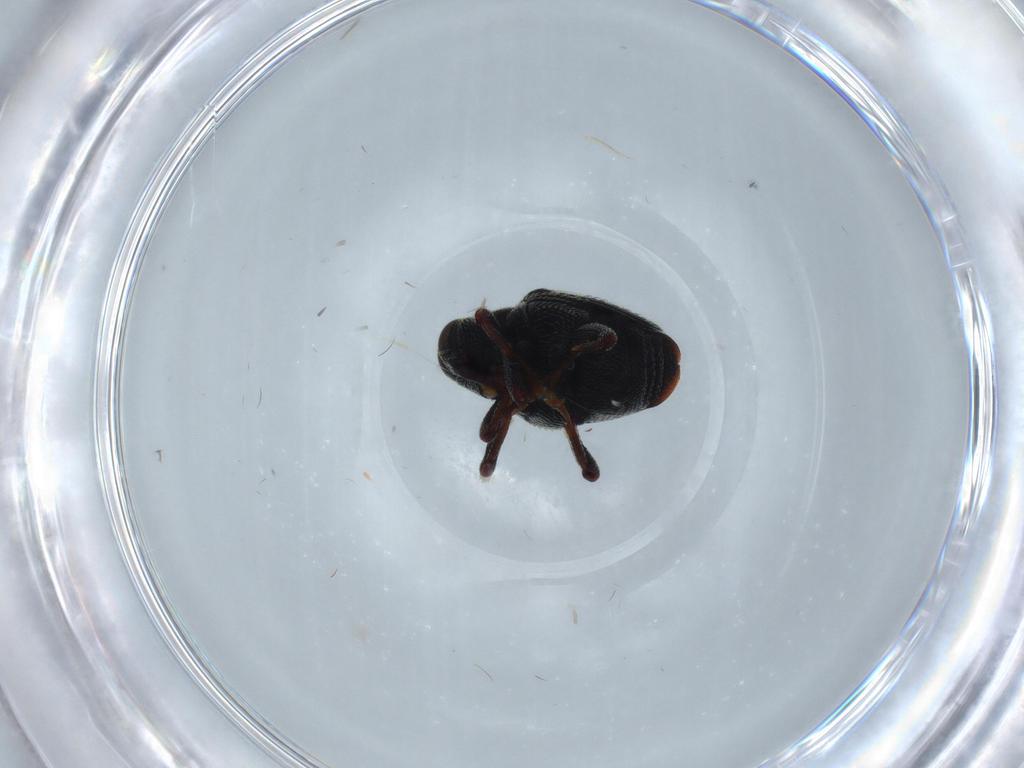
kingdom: Animalia
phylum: Arthropoda
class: Insecta
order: Coleoptera
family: Curculionidae
